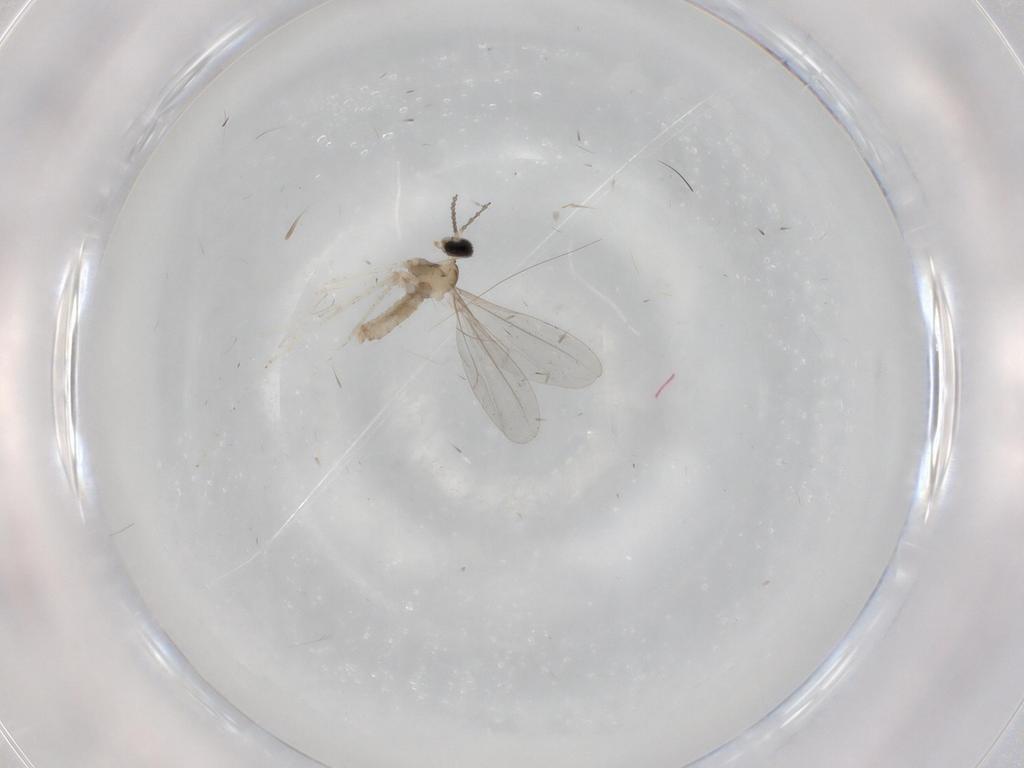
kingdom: Animalia
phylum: Arthropoda
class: Insecta
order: Diptera
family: Cecidomyiidae
